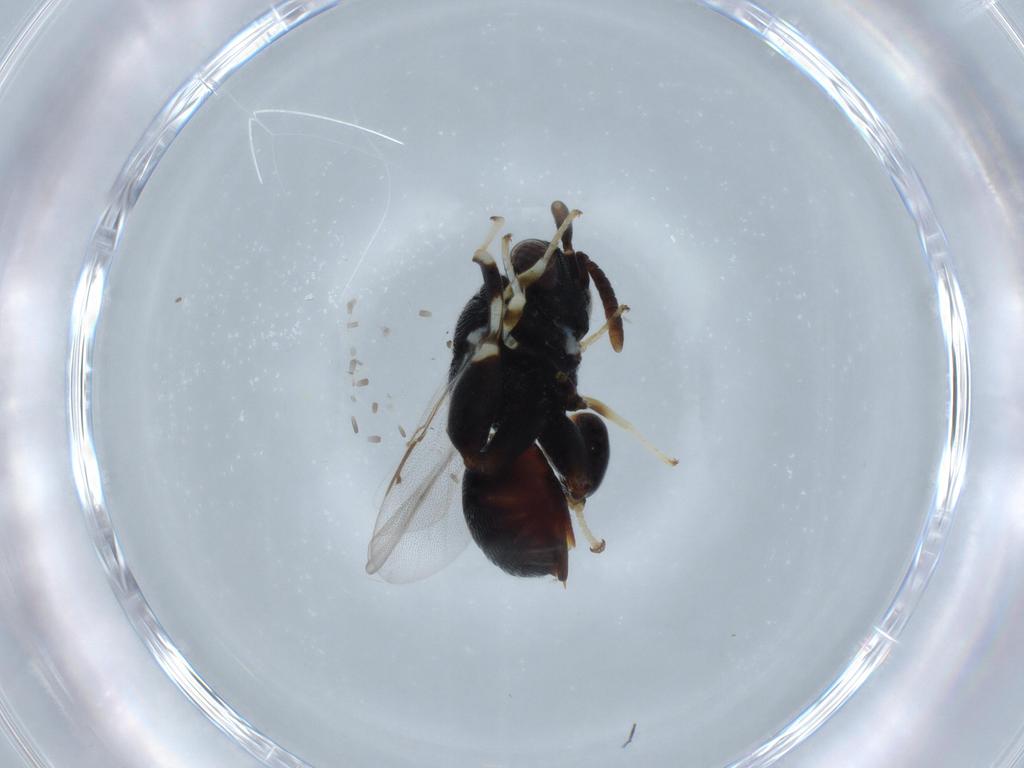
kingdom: Animalia
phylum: Arthropoda
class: Insecta
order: Hymenoptera
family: Chalcididae
